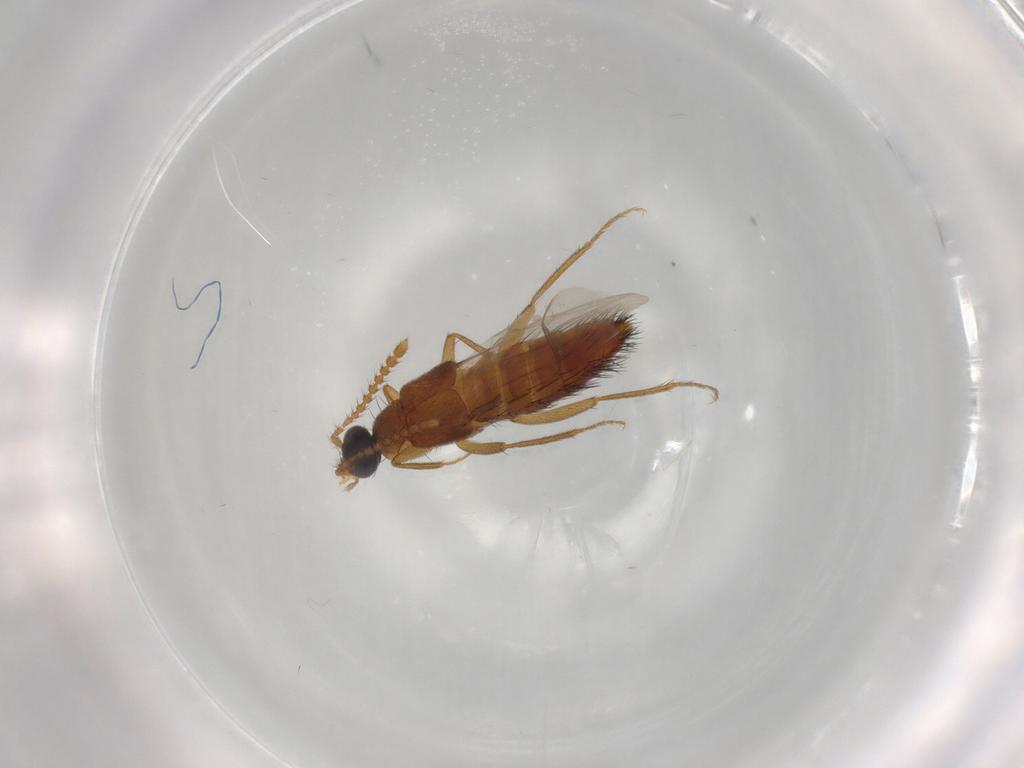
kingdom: Animalia
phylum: Arthropoda
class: Insecta
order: Coleoptera
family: Staphylinidae
